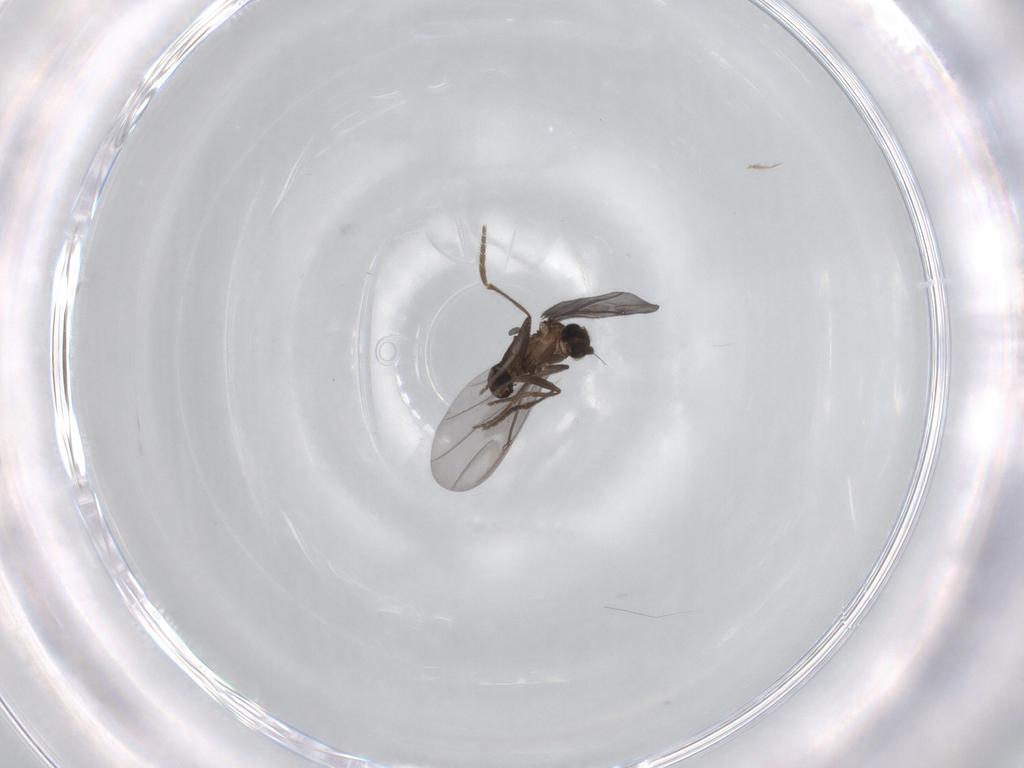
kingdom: Animalia
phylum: Arthropoda
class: Insecta
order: Diptera
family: Phoridae
